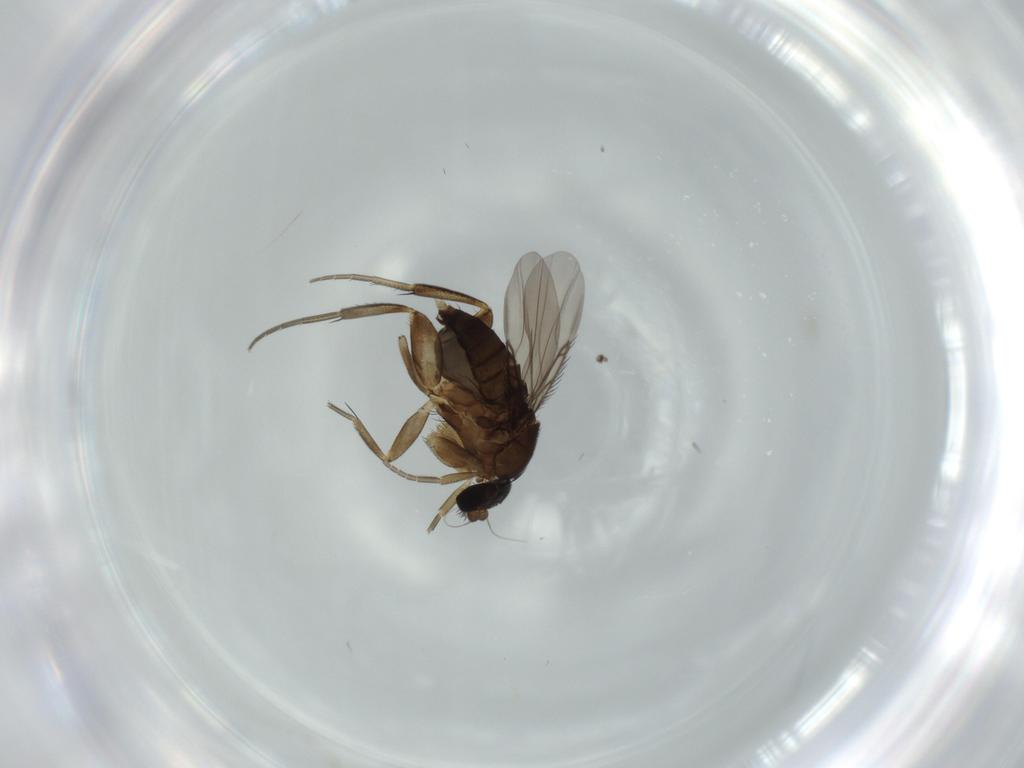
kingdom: Animalia
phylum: Arthropoda
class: Insecta
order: Diptera
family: Phoridae
